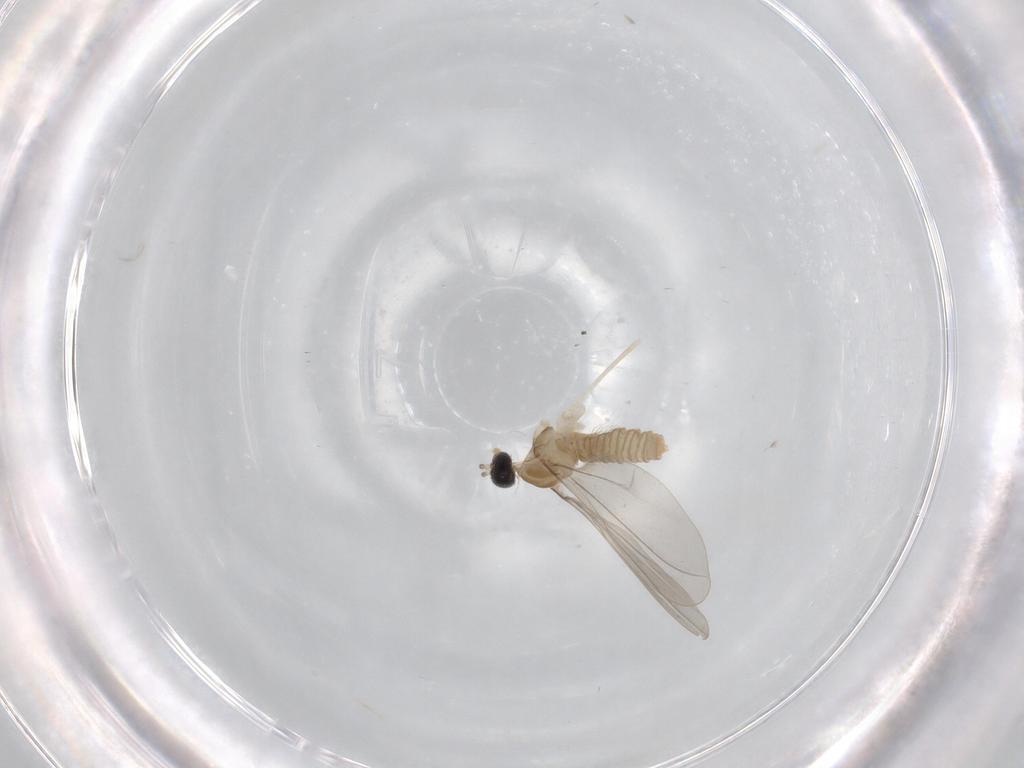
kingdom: Animalia
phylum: Arthropoda
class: Insecta
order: Diptera
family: Cecidomyiidae
